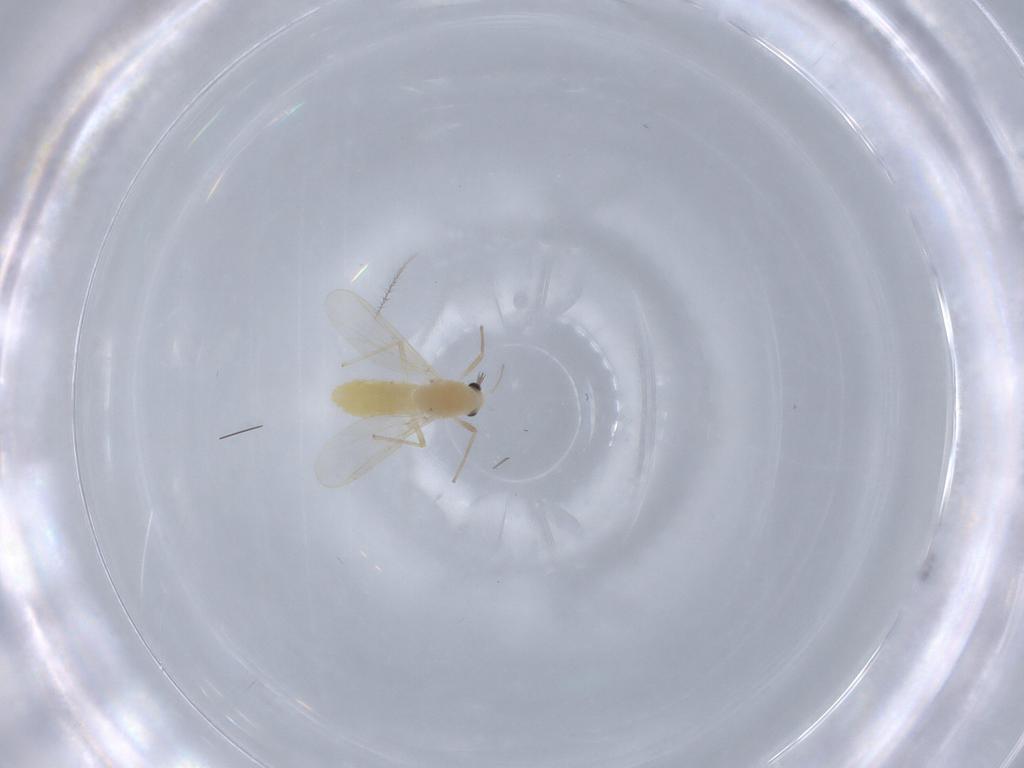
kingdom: Animalia
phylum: Arthropoda
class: Insecta
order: Diptera
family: Chironomidae
